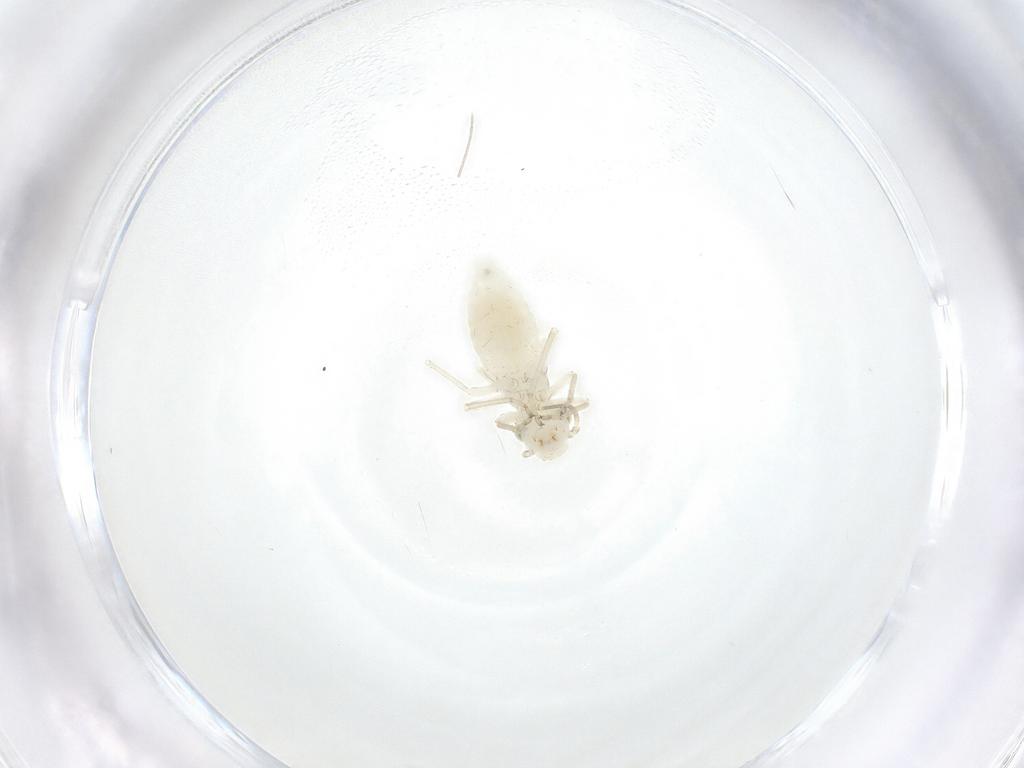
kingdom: Animalia
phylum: Arthropoda
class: Insecta
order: Psocodea
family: Caeciliusidae
